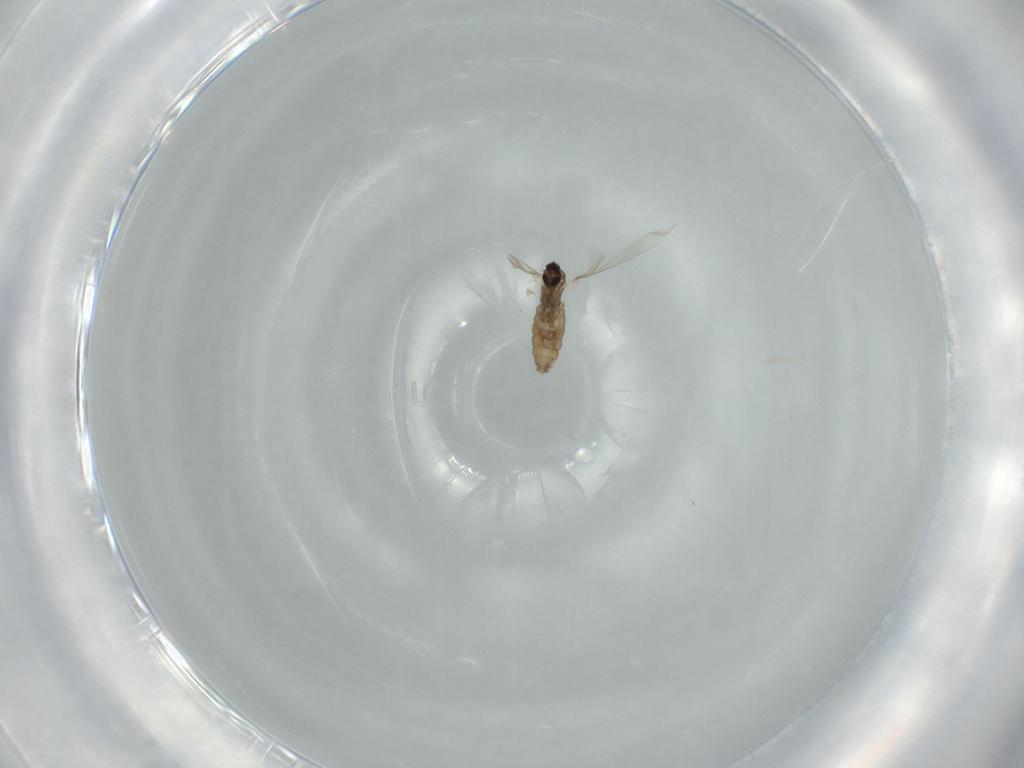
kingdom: Animalia
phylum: Arthropoda
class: Insecta
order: Diptera
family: Cecidomyiidae
